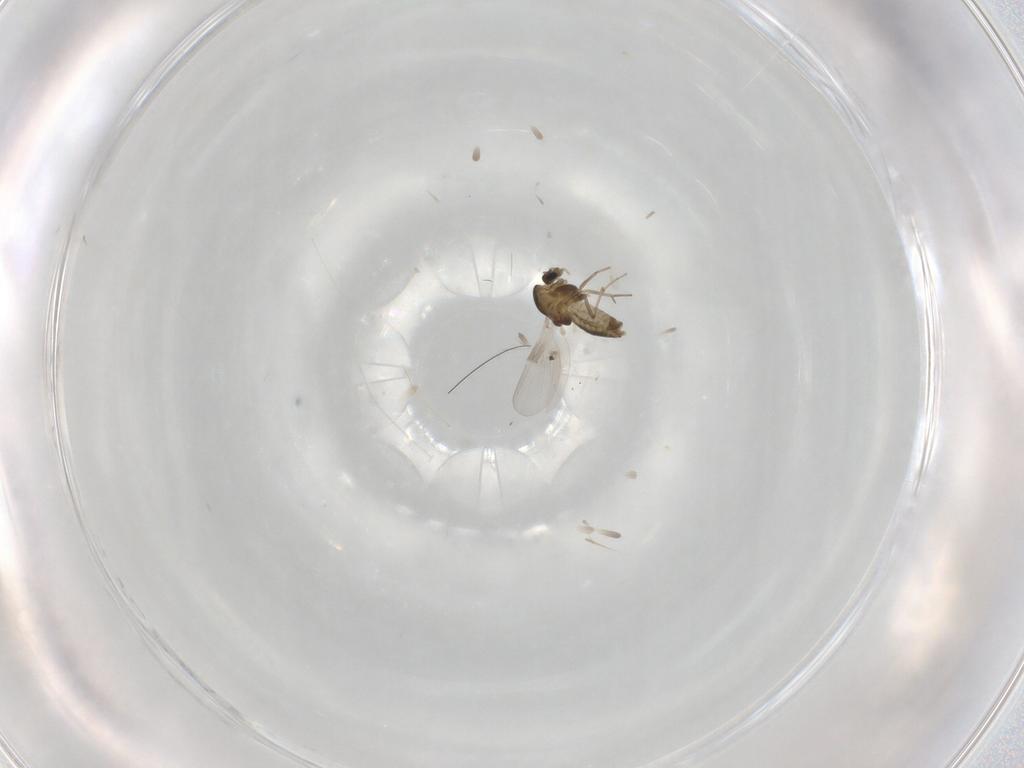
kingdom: Animalia
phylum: Arthropoda
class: Insecta
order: Diptera
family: Chironomidae
